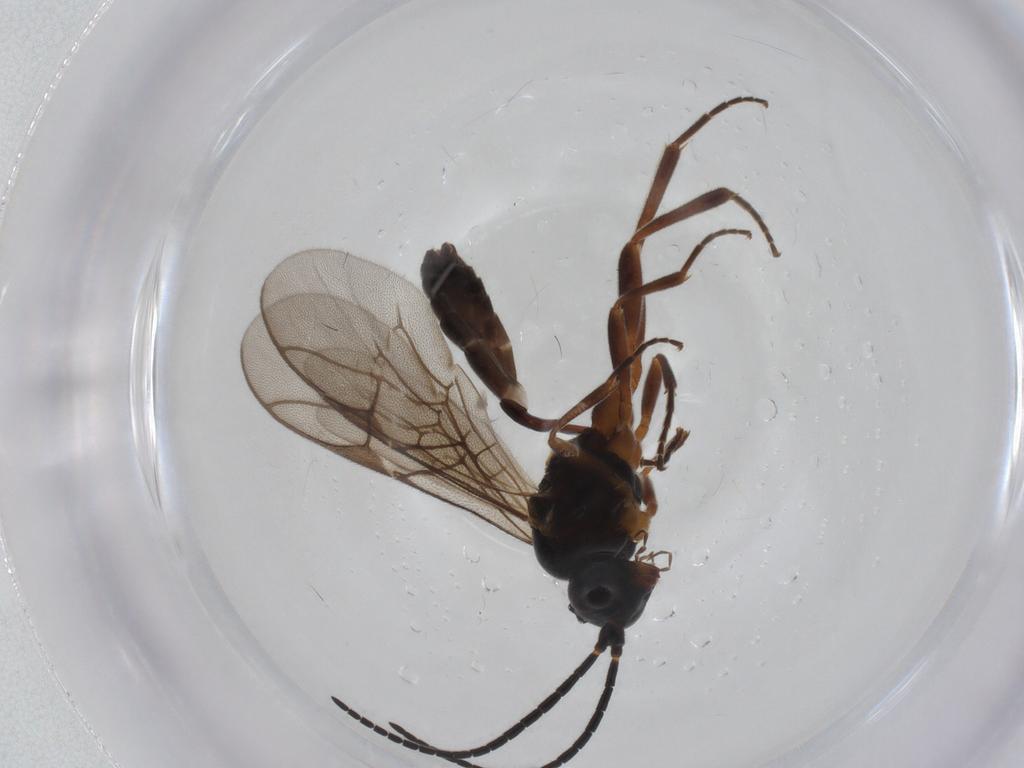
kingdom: Animalia
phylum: Arthropoda
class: Insecta
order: Hymenoptera
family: Ichneumonidae
